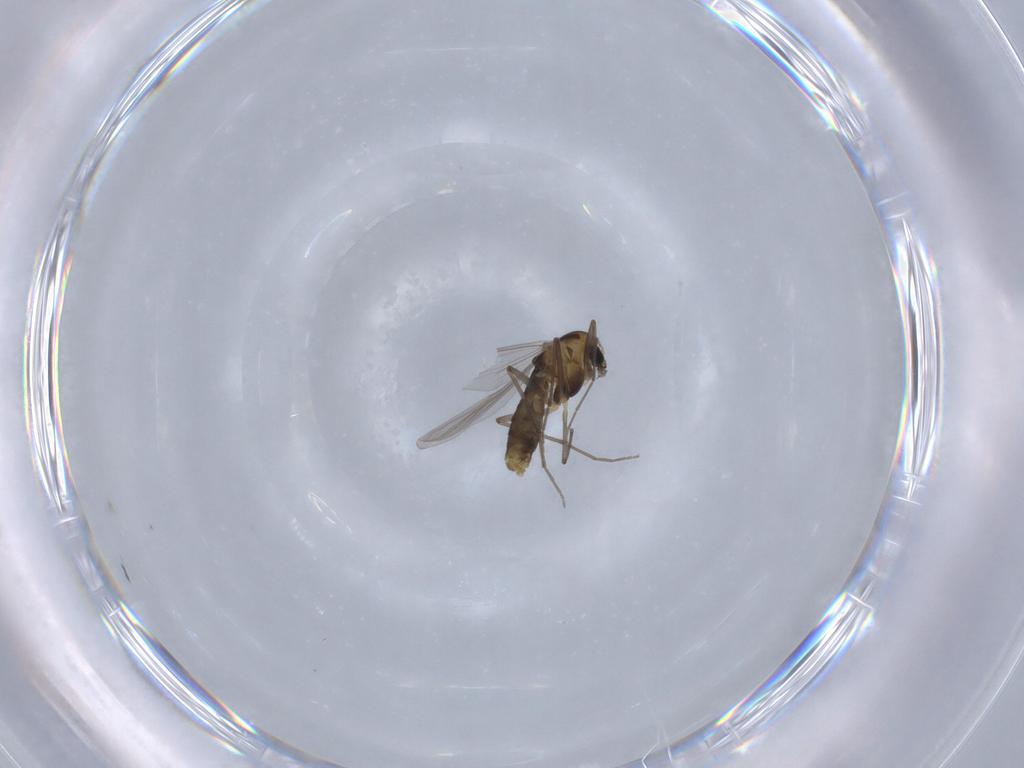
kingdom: Animalia
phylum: Arthropoda
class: Insecta
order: Diptera
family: Chironomidae
